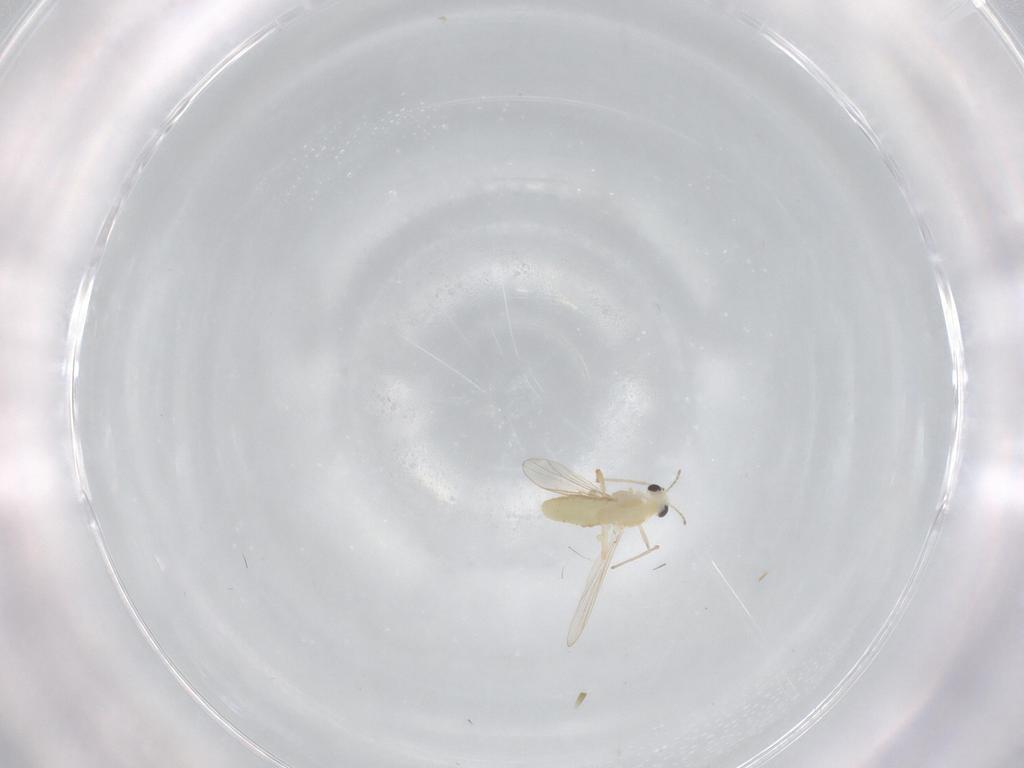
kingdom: Animalia
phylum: Arthropoda
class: Insecta
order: Diptera
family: Chironomidae
